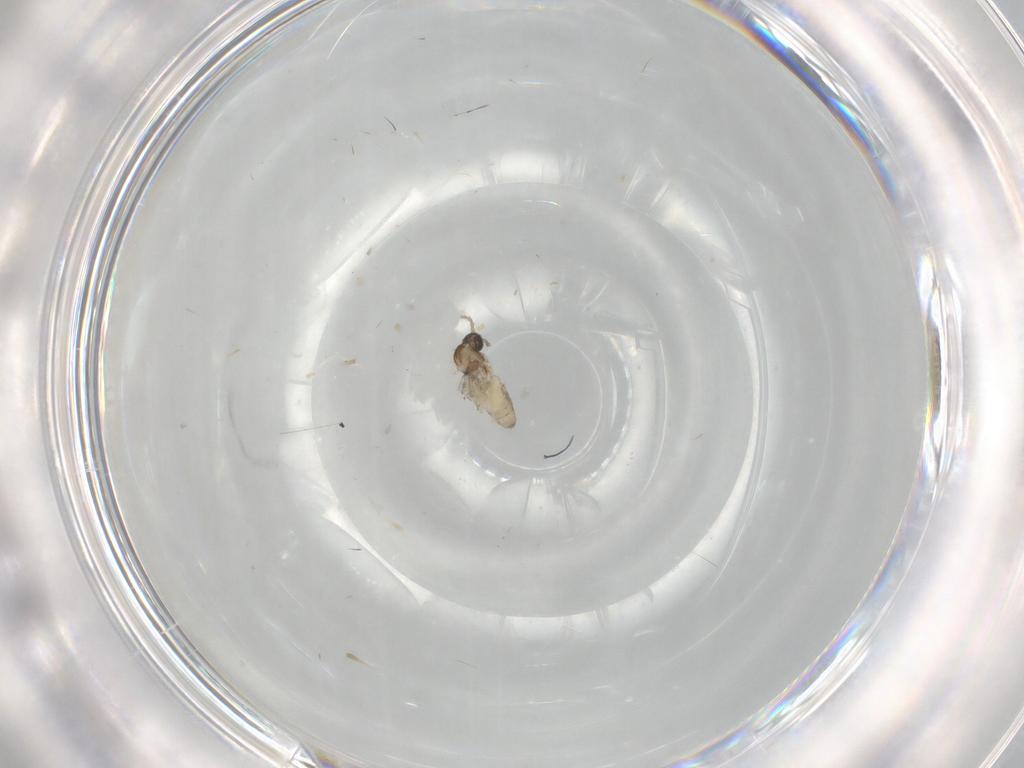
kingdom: Animalia
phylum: Arthropoda
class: Insecta
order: Diptera
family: Cecidomyiidae
